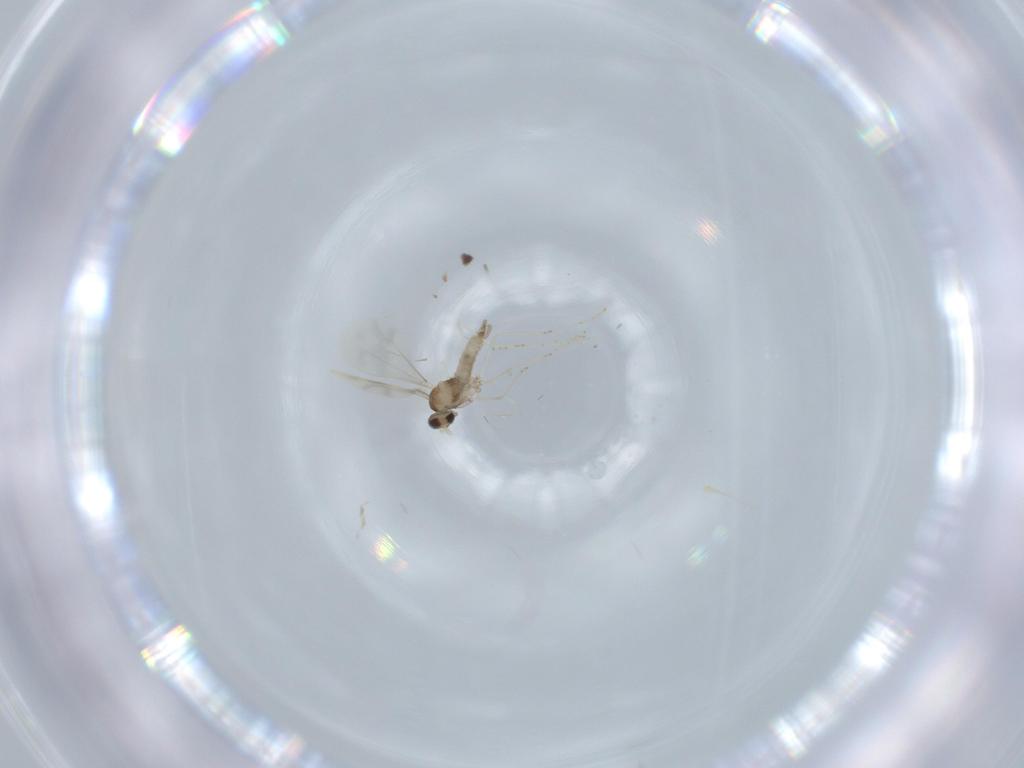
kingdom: Animalia
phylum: Arthropoda
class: Insecta
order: Diptera
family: Cecidomyiidae
